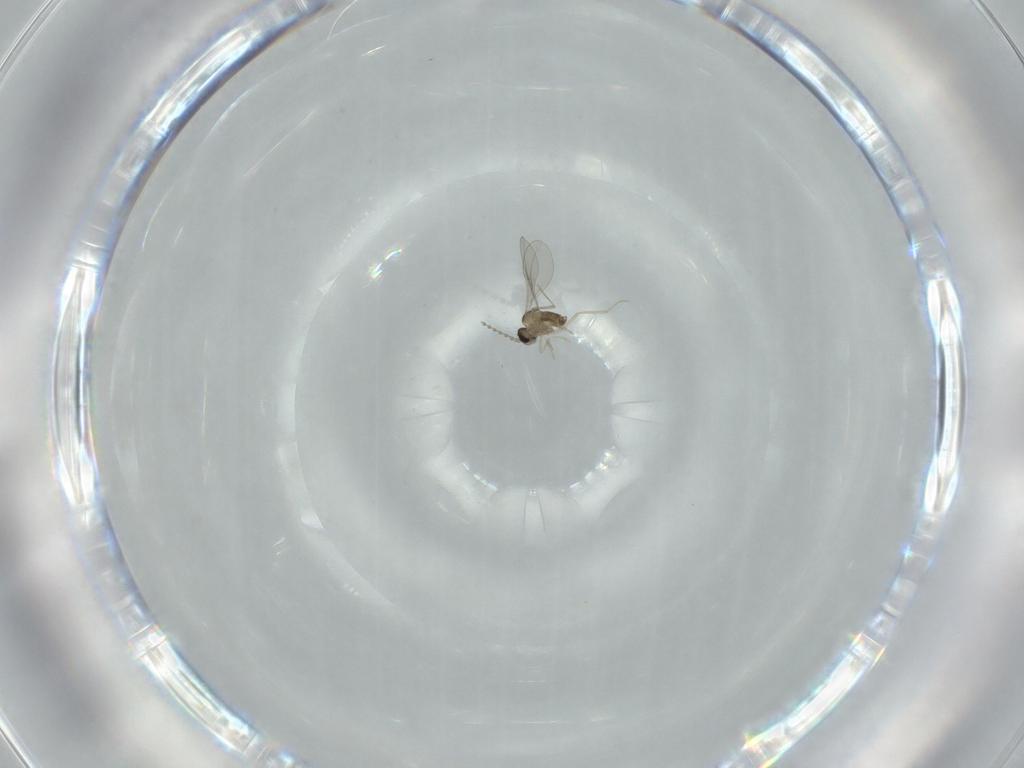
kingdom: Animalia
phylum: Arthropoda
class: Insecta
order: Diptera
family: Cecidomyiidae
